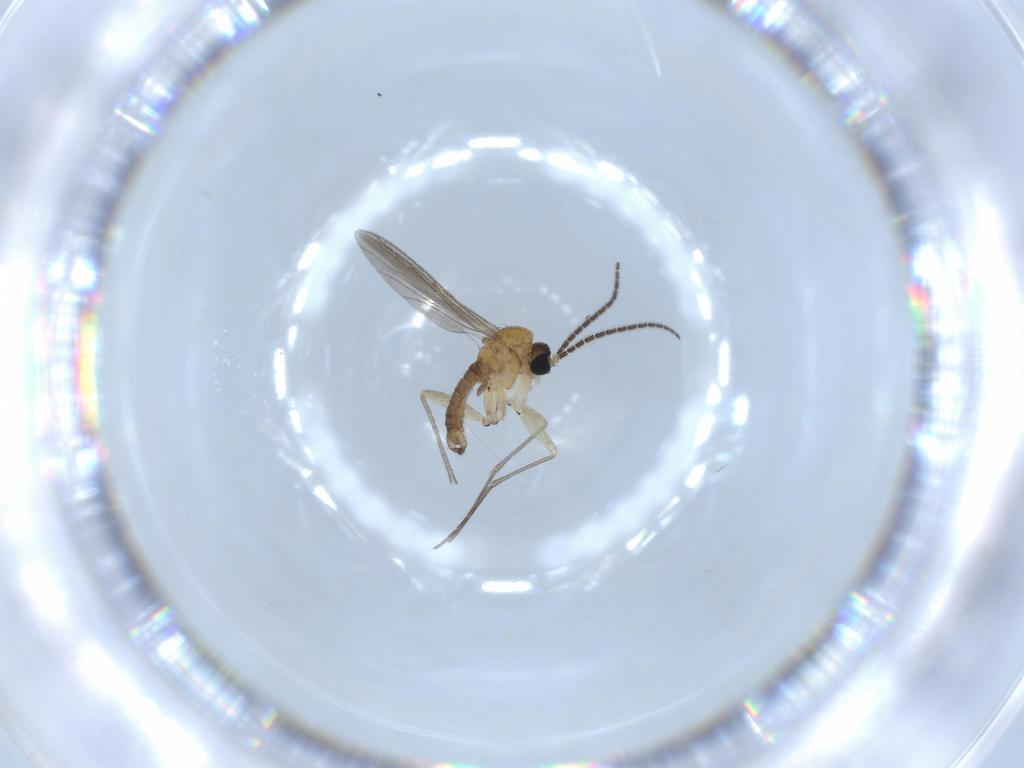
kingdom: Animalia
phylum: Arthropoda
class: Insecta
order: Diptera
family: Sciaridae
